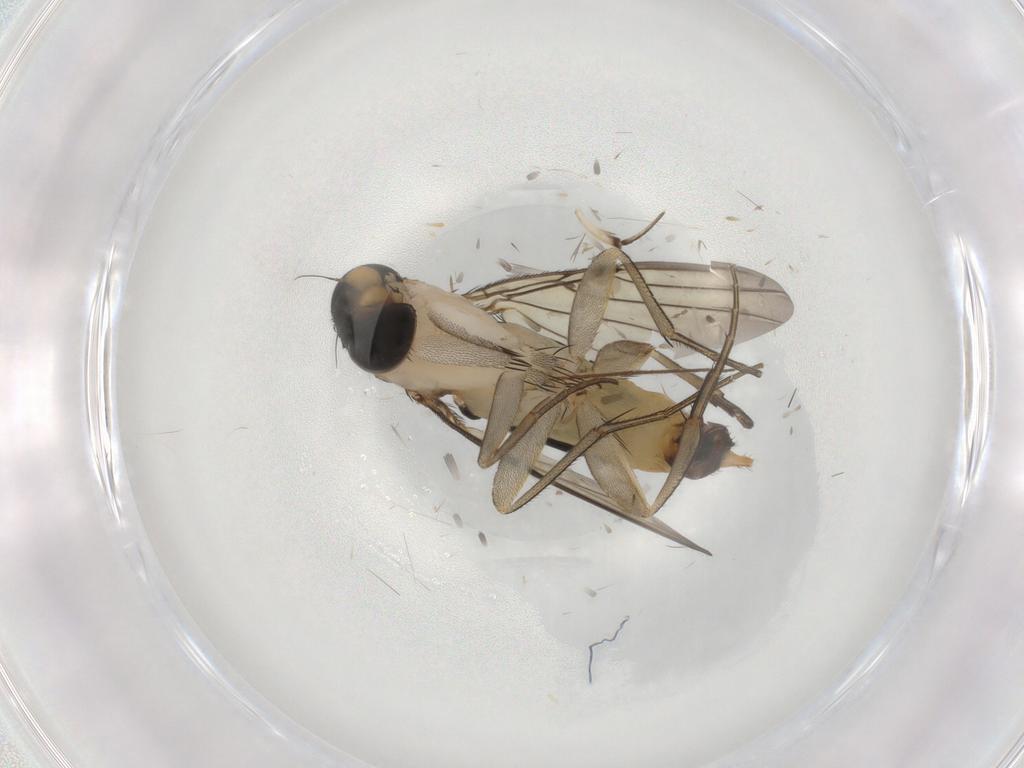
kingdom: Animalia
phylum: Arthropoda
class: Insecta
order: Diptera
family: Phoridae
